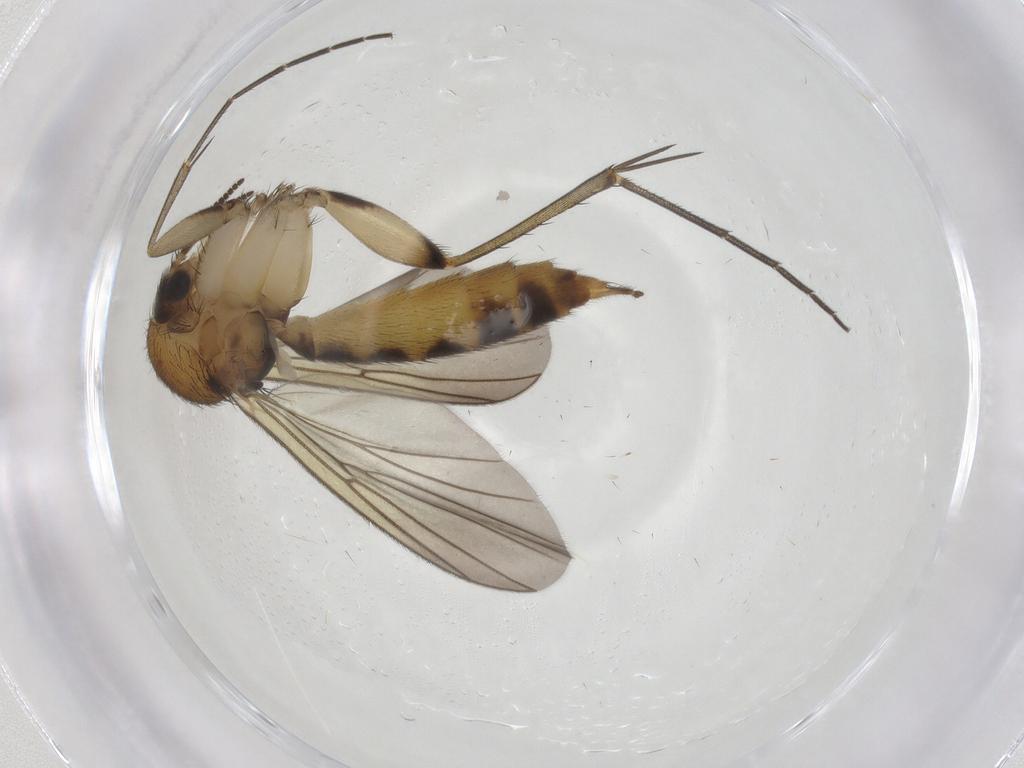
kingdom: Animalia
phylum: Arthropoda
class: Insecta
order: Diptera
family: Mycetophilidae
